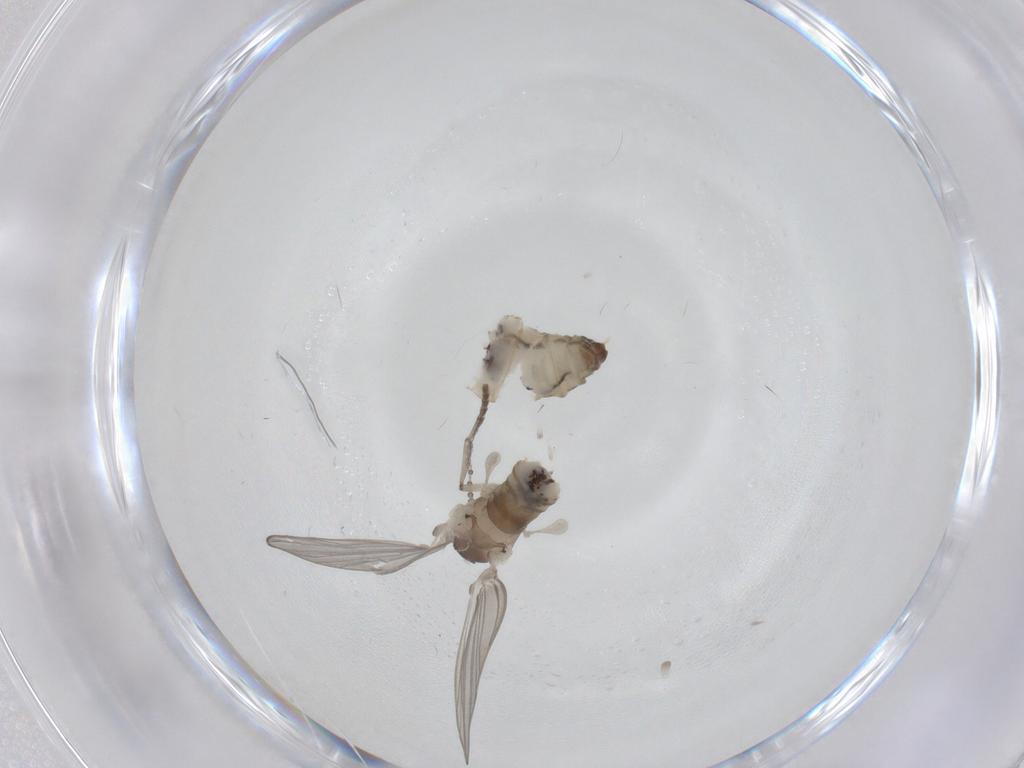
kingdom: Animalia
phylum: Arthropoda
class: Insecta
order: Diptera
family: Psychodidae
